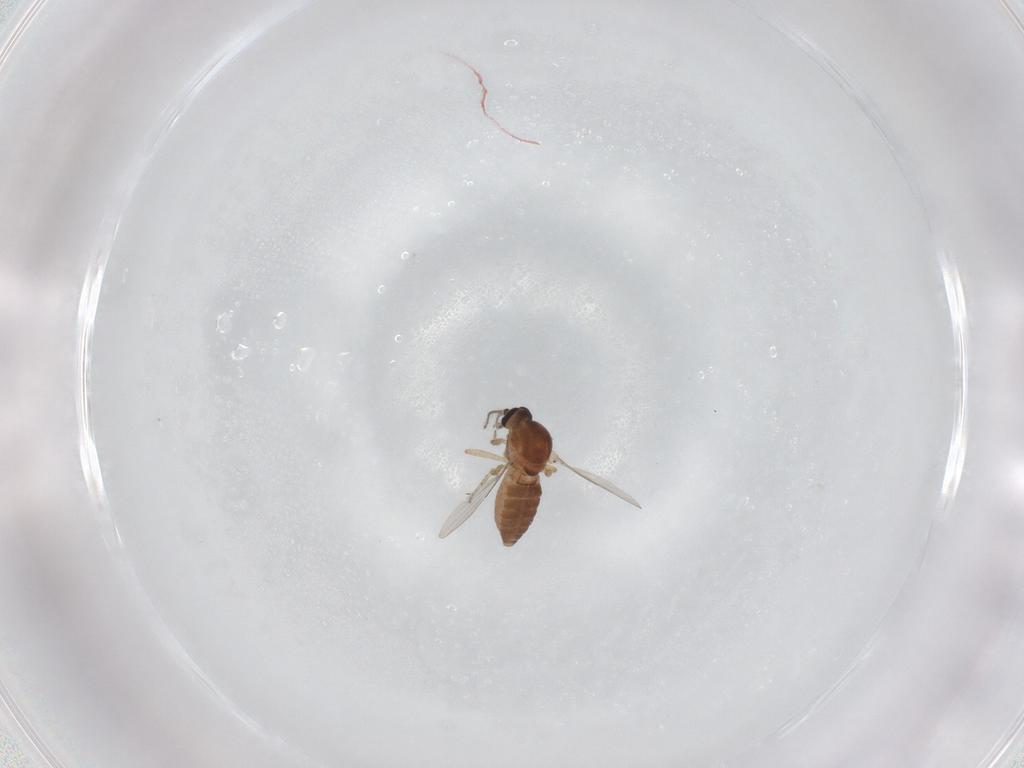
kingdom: Animalia
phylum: Arthropoda
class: Insecta
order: Diptera
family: Ceratopogonidae
